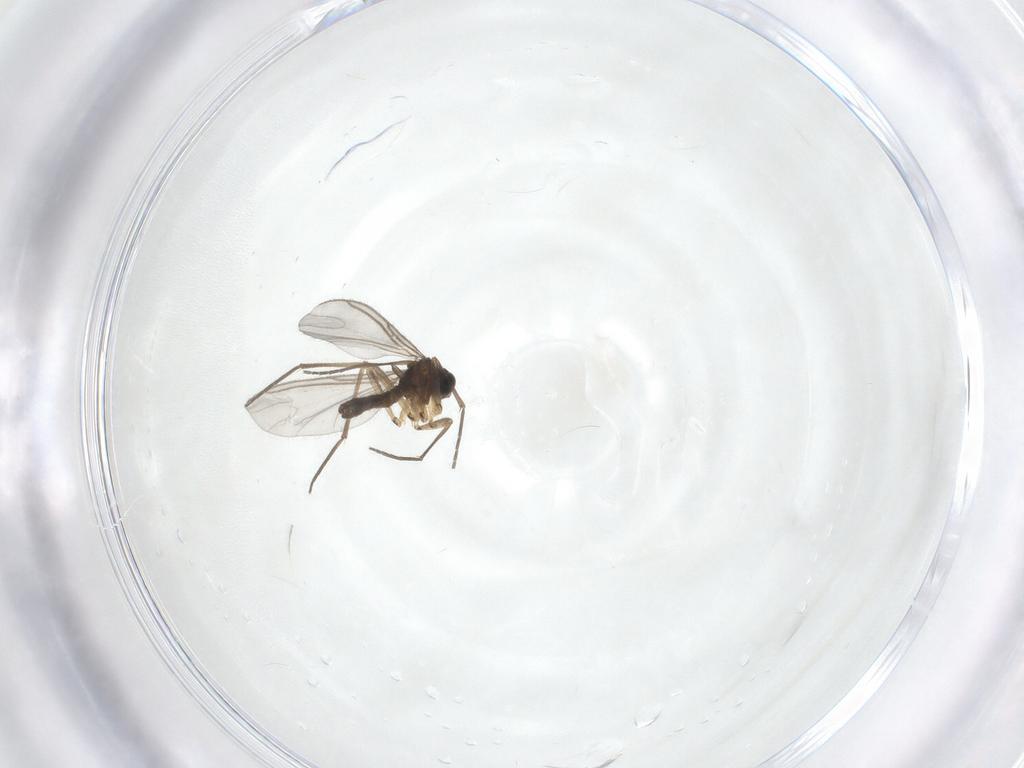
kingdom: Animalia
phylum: Arthropoda
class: Insecta
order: Diptera
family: Sciaridae
